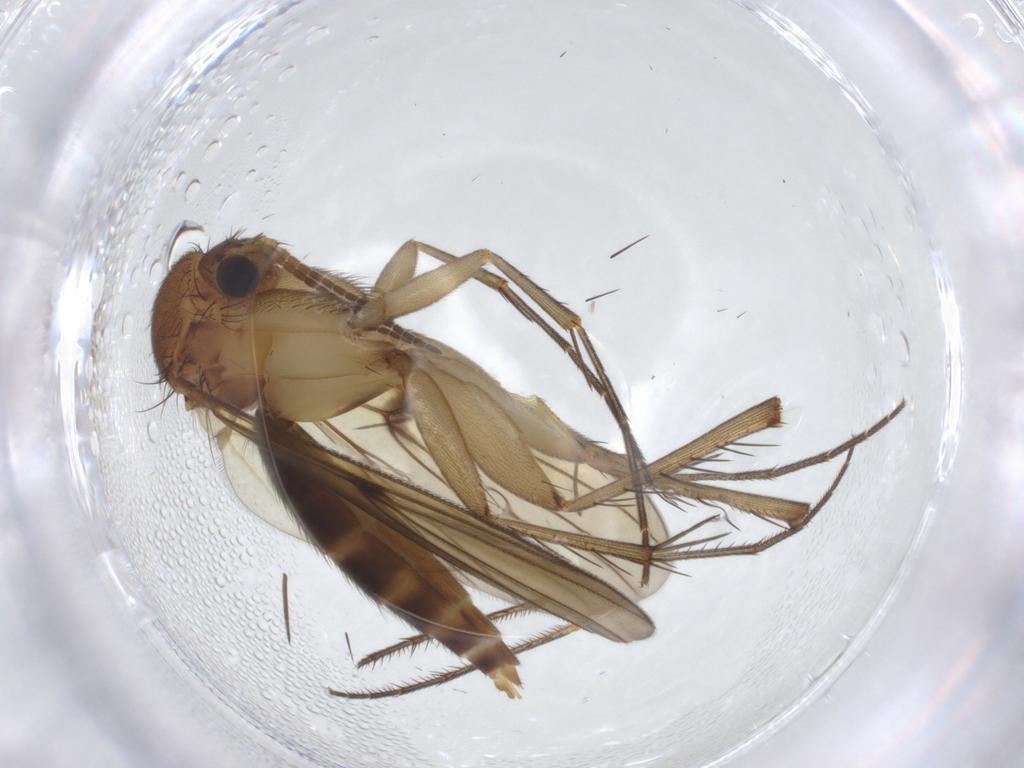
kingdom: Animalia
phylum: Arthropoda
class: Insecta
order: Diptera
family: Mycetophilidae
